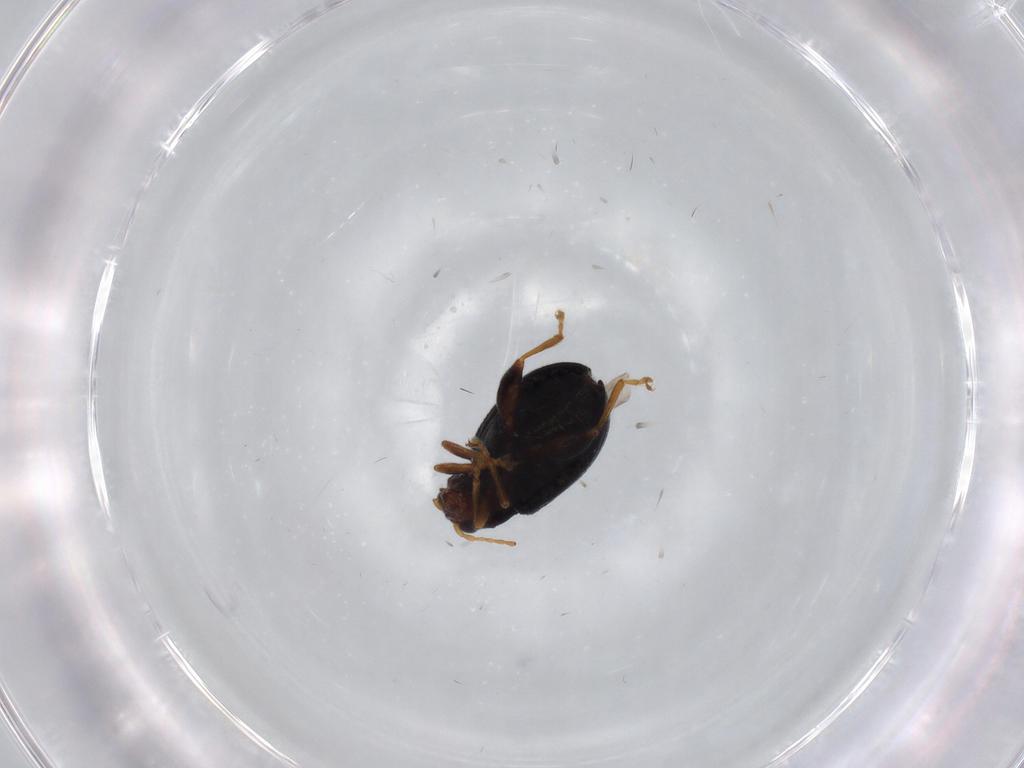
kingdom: Animalia
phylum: Arthropoda
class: Insecta
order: Coleoptera
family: Chrysomelidae
